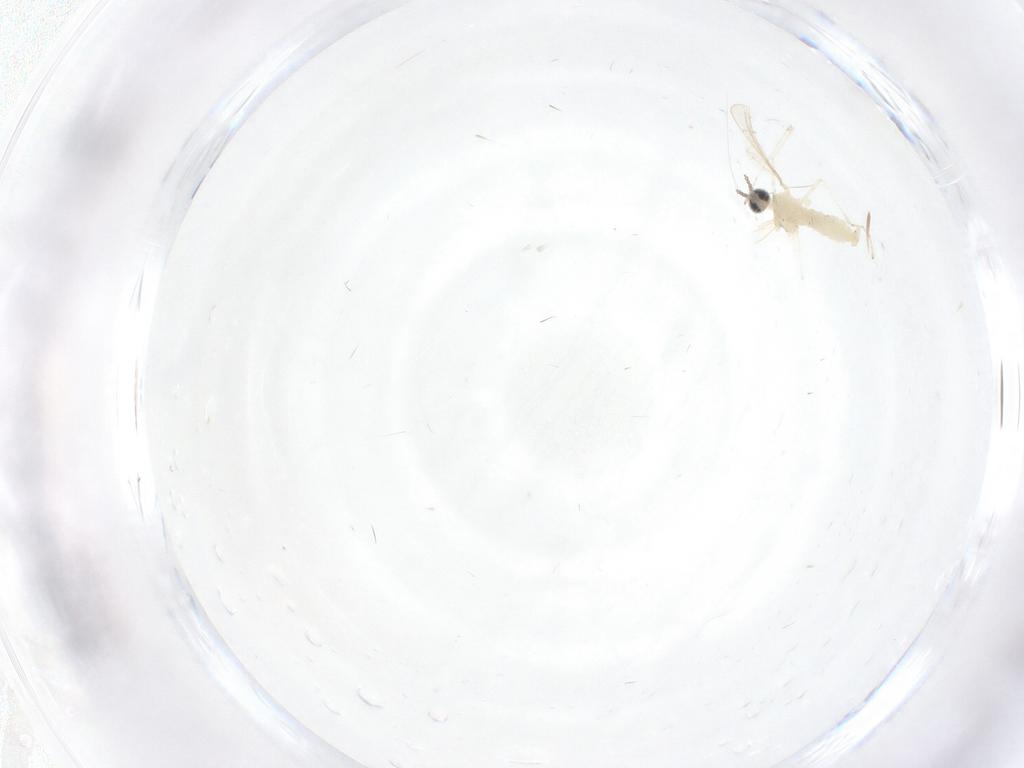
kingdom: Animalia
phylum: Arthropoda
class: Insecta
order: Diptera
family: Cecidomyiidae
